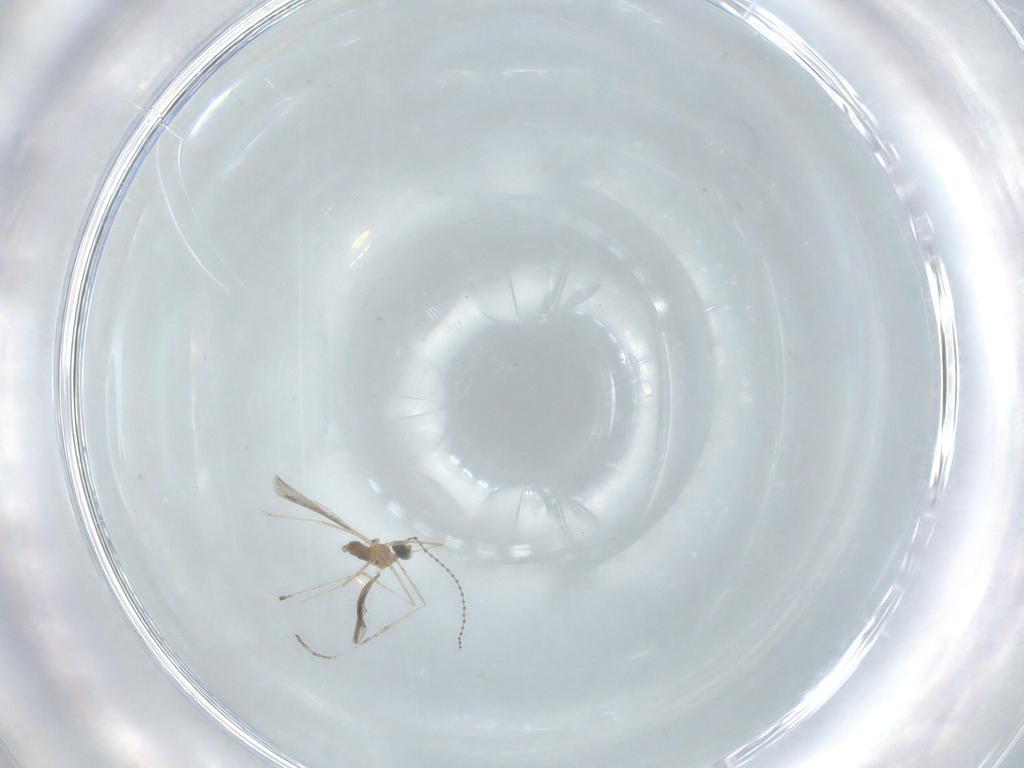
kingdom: Animalia
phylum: Arthropoda
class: Insecta
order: Diptera
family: Cecidomyiidae
